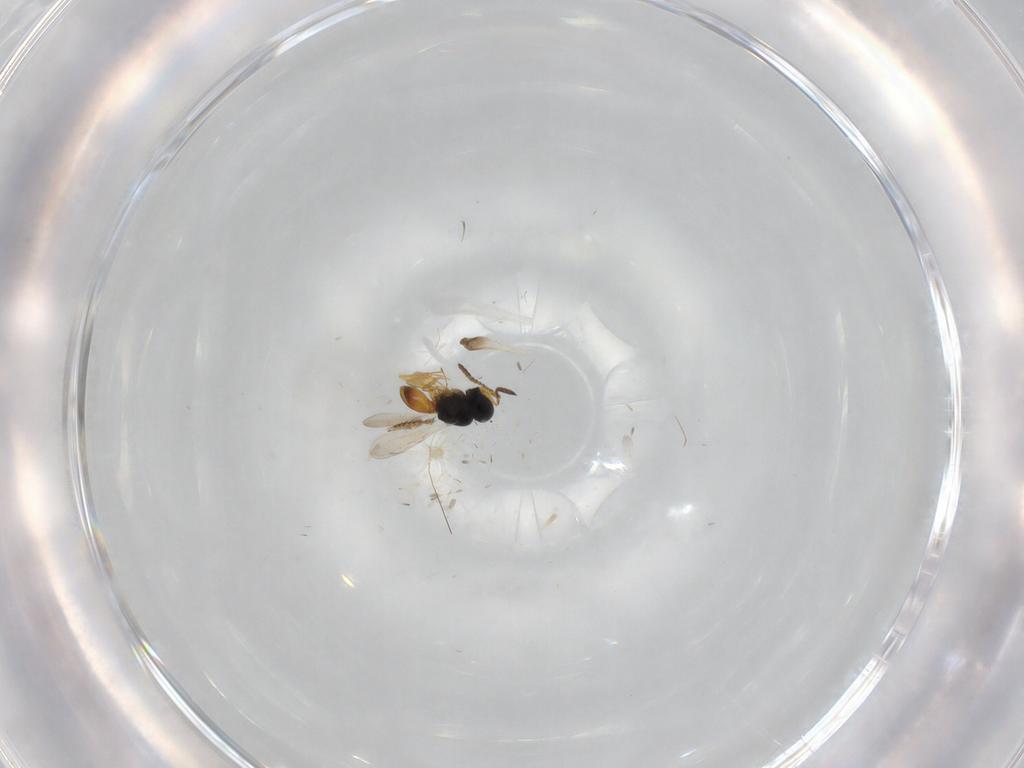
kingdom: Animalia
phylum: Arthropoda
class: Insecta
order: Hymenoptera
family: Scelionidae
